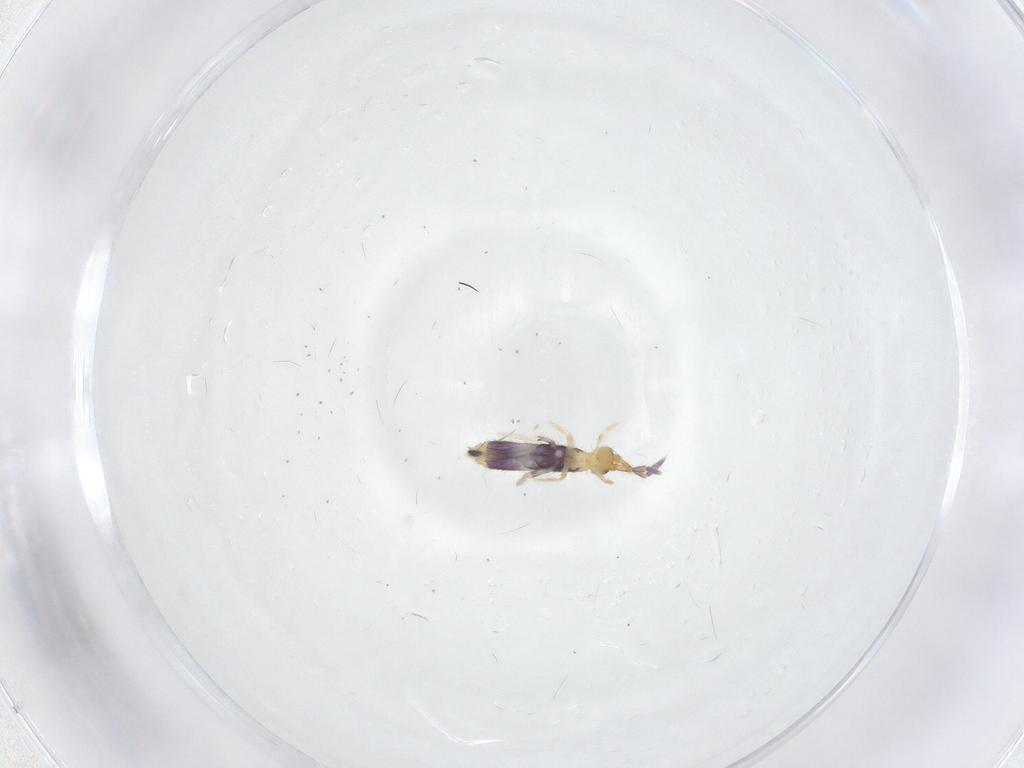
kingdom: Animalia
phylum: Arthropoda
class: Collembola
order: Entomobryomorpha
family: Entomobryidae
